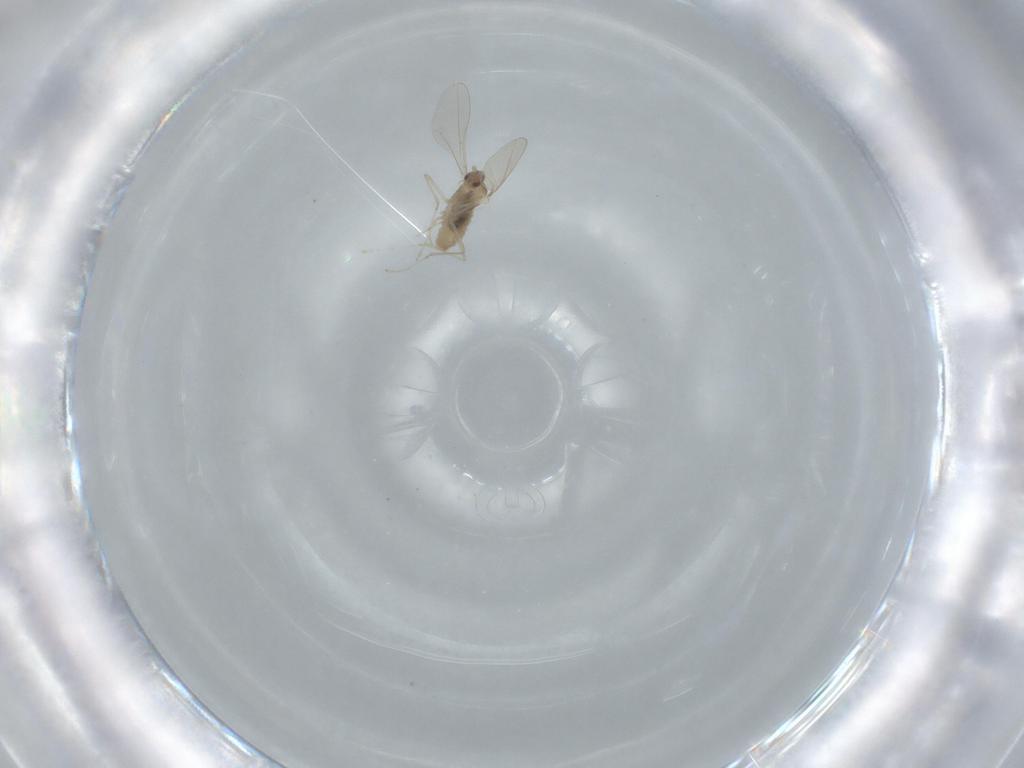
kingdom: Animalia
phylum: Arthropoda
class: Insecta
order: Diptera
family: Cecidomyiidae
